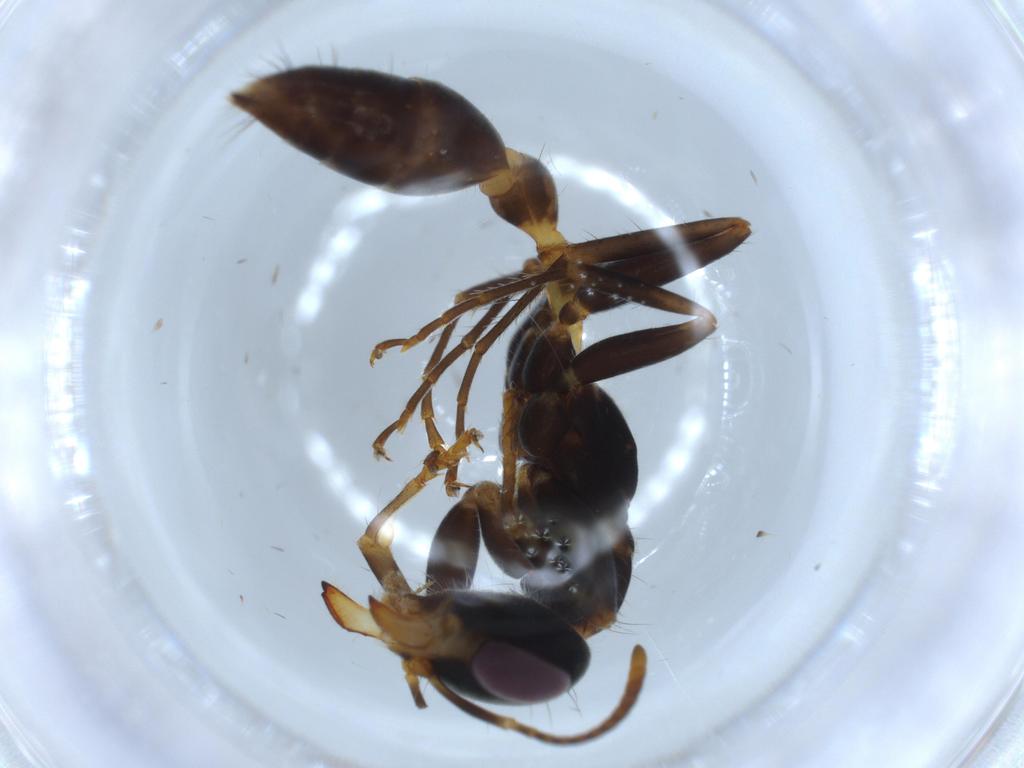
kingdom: Animalia
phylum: Arthropoda
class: Insecta
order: Hymenoptera
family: Formicidae
